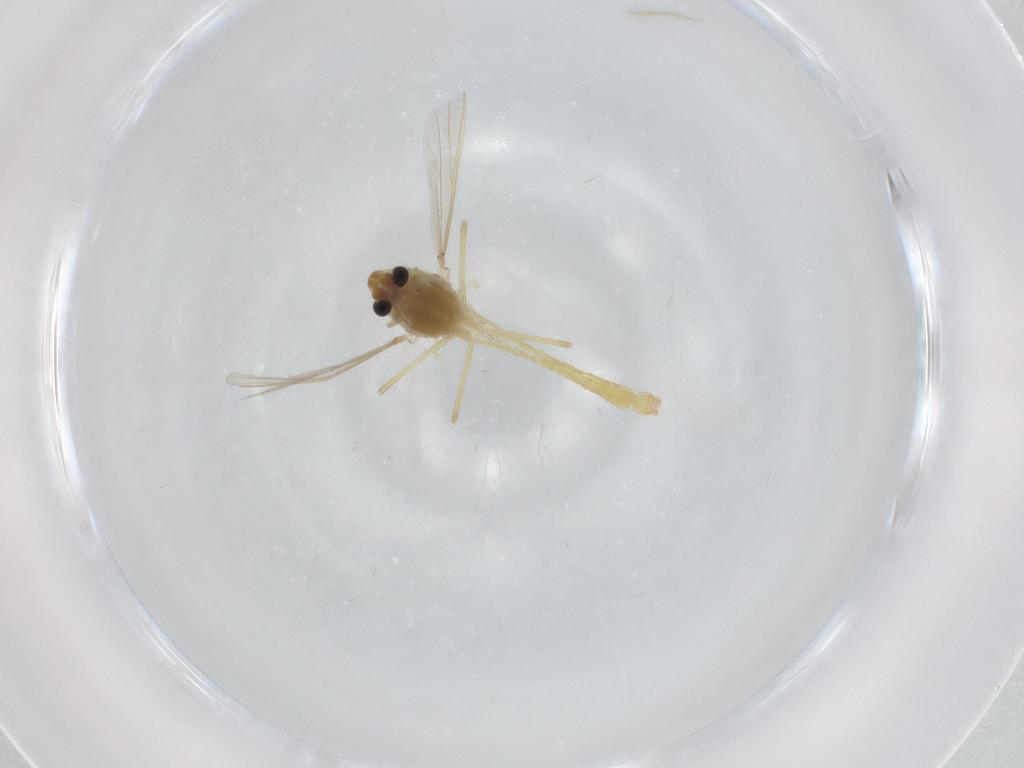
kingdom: Animalia
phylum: Arthropoda
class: Insecta
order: Diptera
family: Chironomidae
